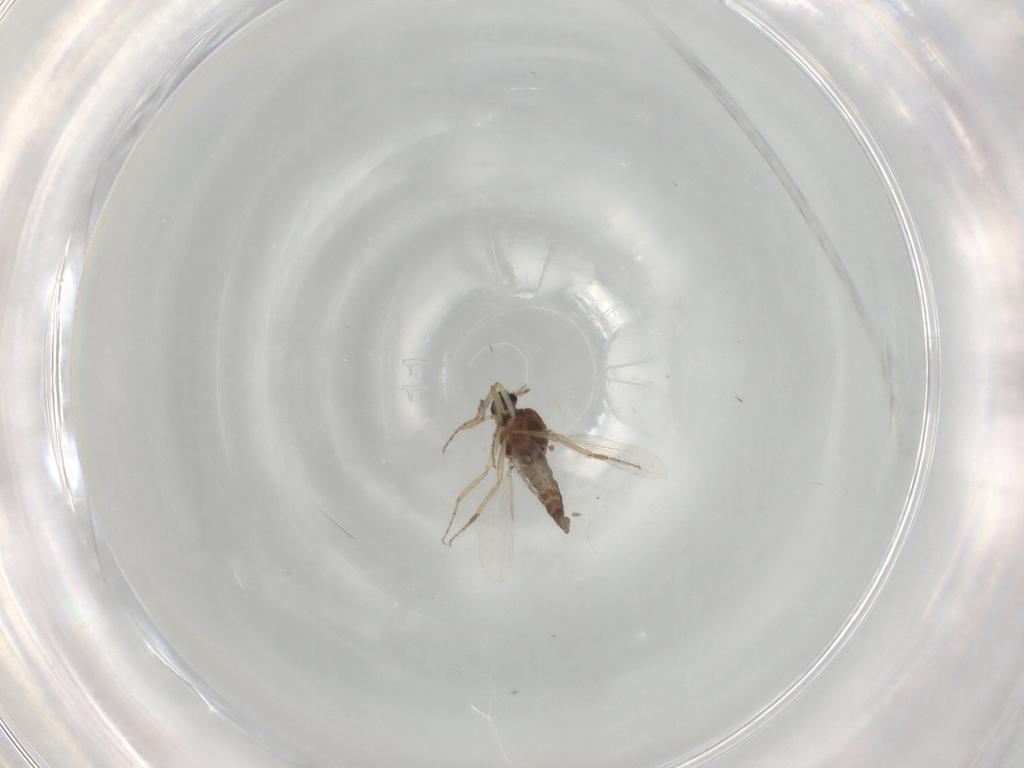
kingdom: Animalia
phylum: Arthropoda
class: Insecta
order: Diptera
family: Ceratopogonidae
